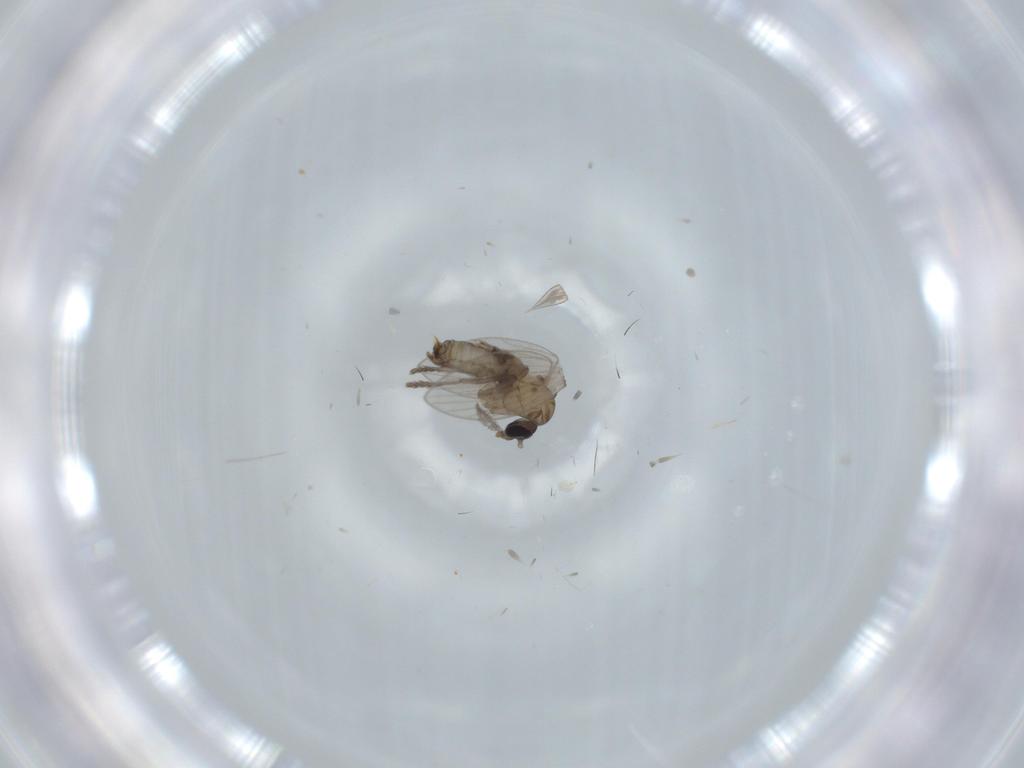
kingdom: Animalia
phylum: Arthropoda
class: Insecta
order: Diptera
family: Psychodidae
